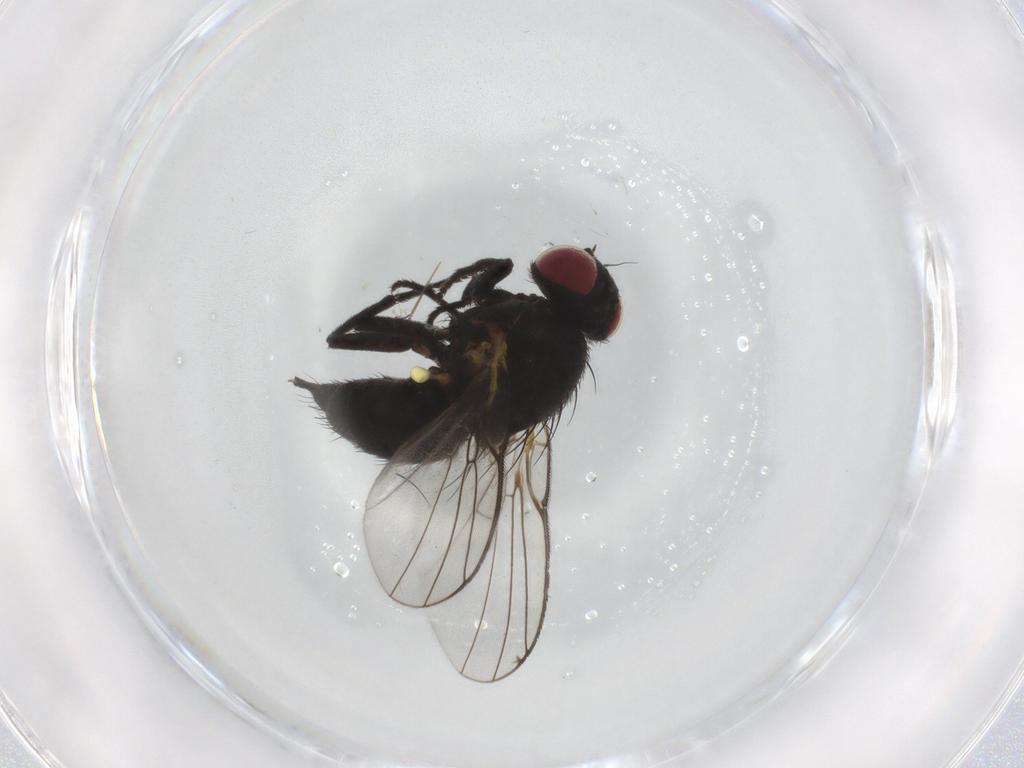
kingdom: Animalia
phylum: Arthropoda
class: Insecta
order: Diptera
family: Agromyzidae
